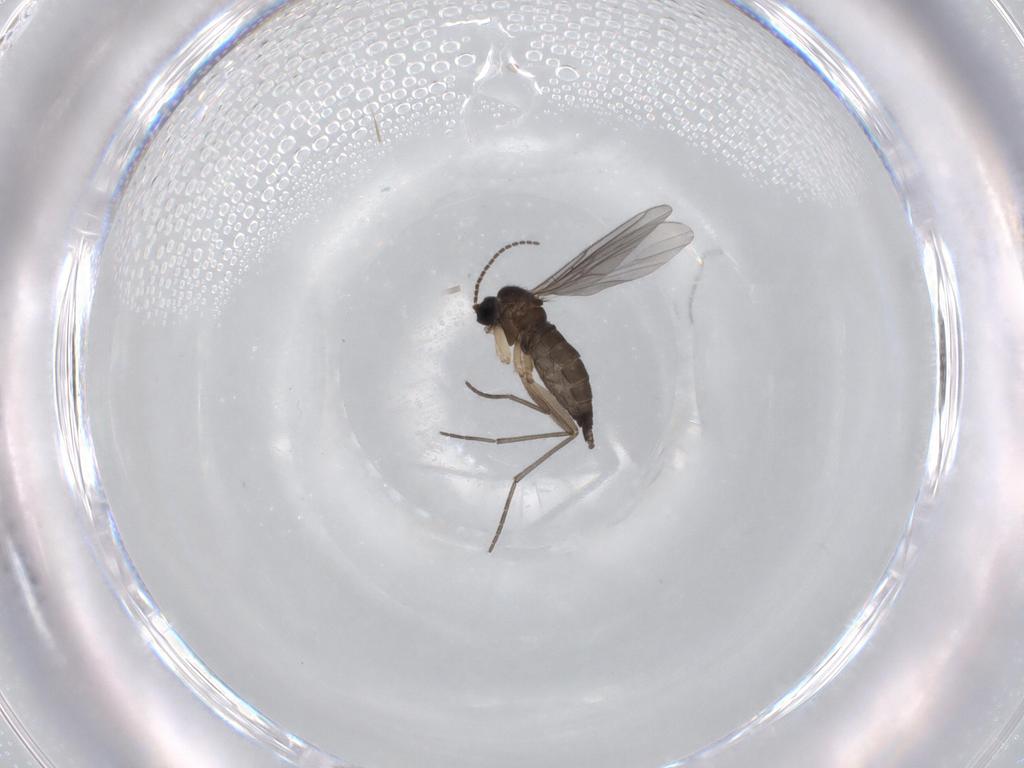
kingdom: Animalia
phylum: Arthropoda
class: Insecta
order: Diptera
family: Sciaridae
